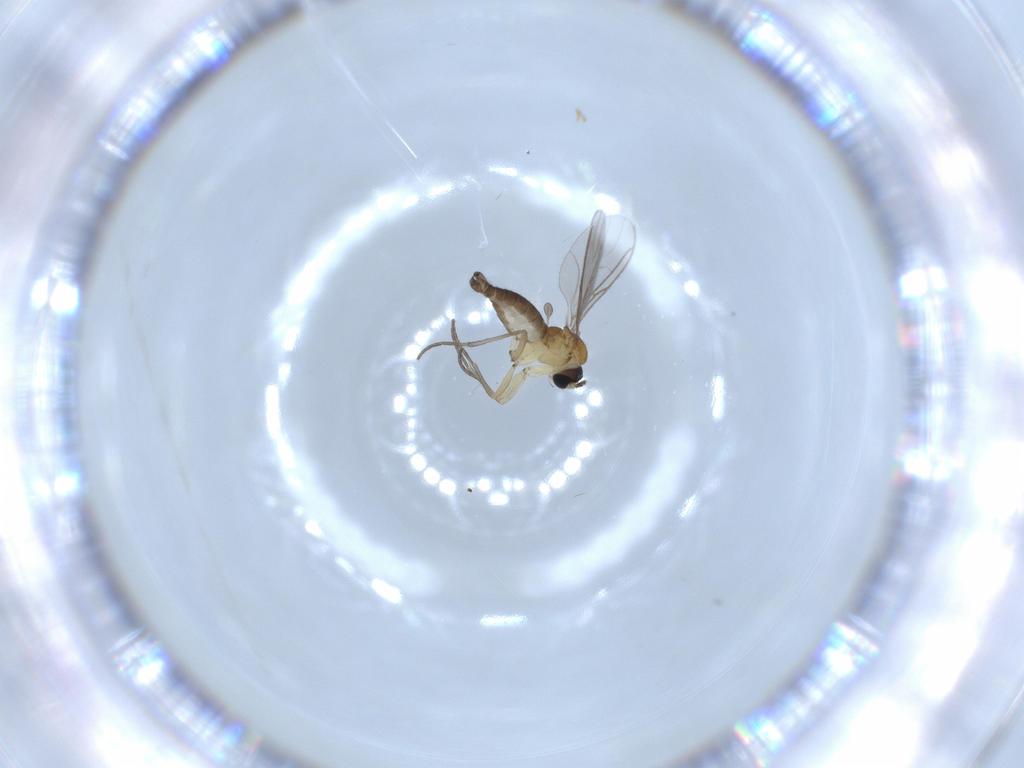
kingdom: Animalia
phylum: Arthropoda
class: Insecta
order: Diptera
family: Sciaridae
